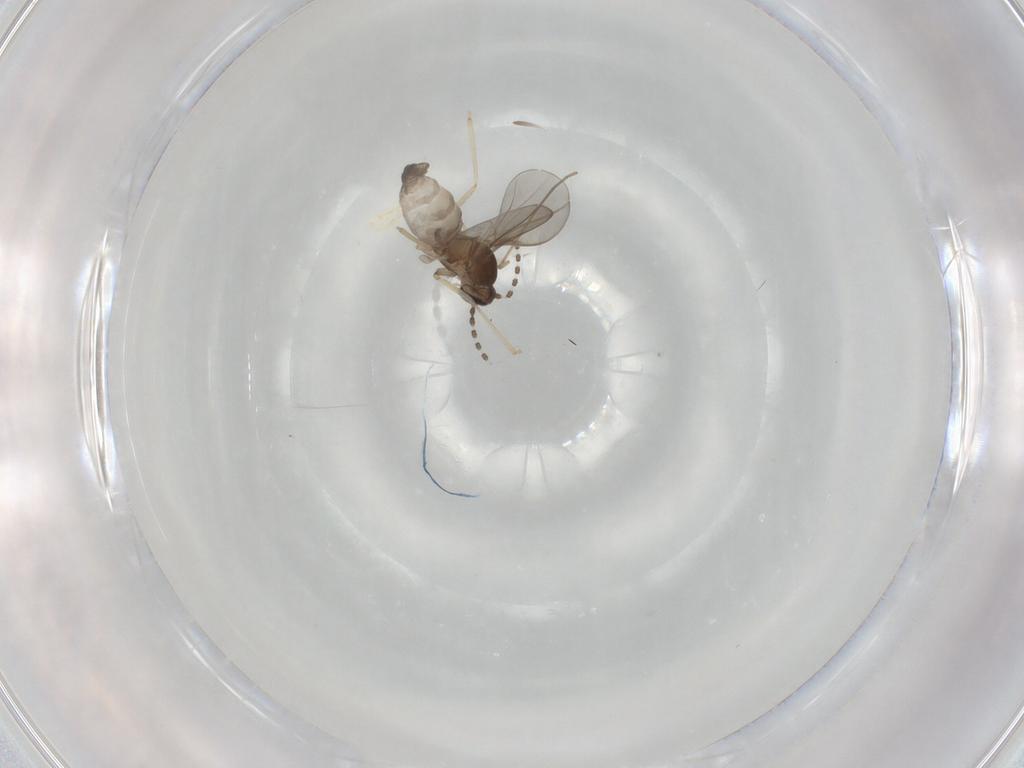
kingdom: Animalia
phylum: Arthropoda
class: Insecta
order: Diptera
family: Cecidomyiidae
